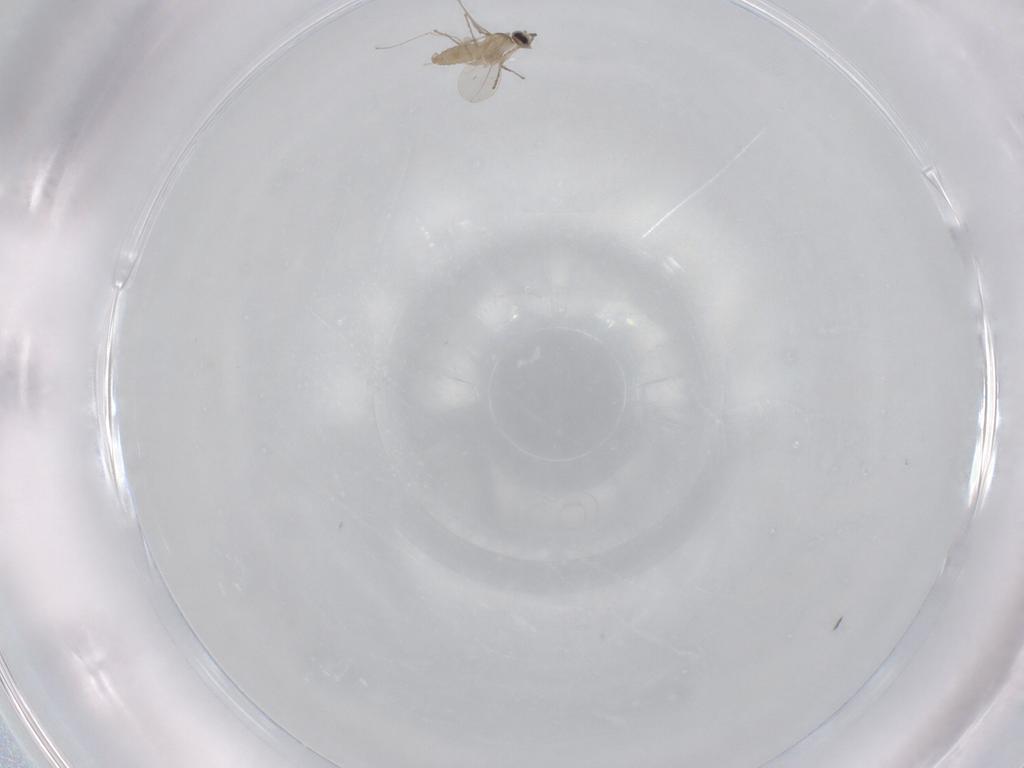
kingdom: Animalia
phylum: Arthropoda
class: Insecta
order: Diptera
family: Cecidomyiidae
